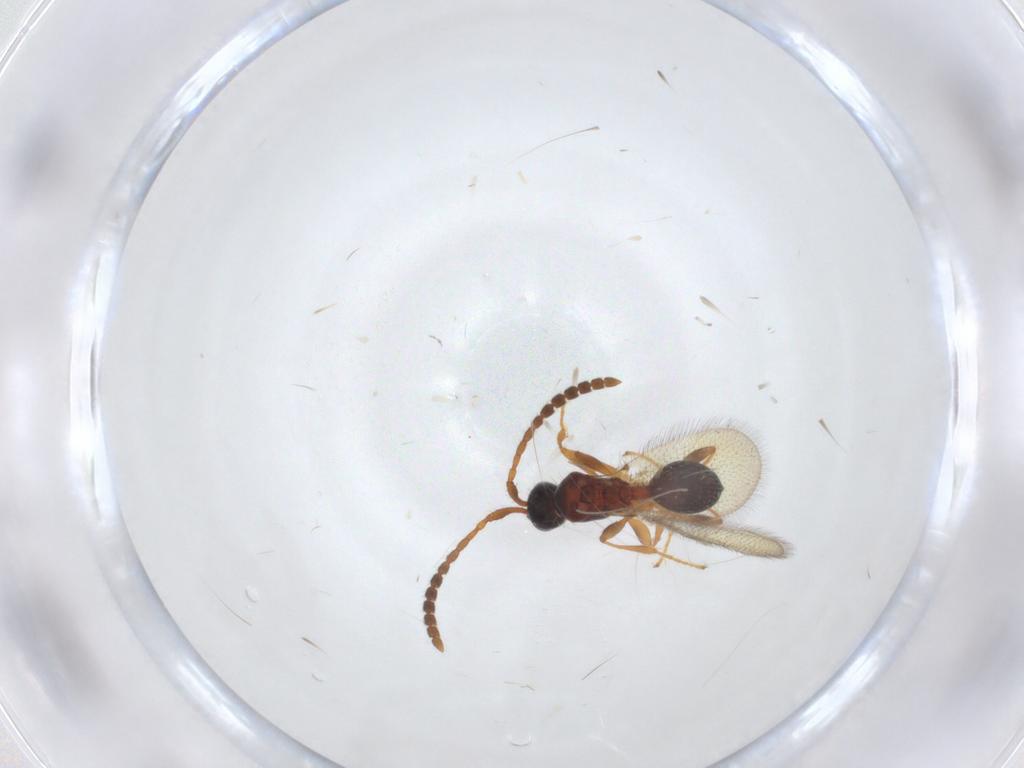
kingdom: Animalia
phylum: Arthropoda
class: Insecta
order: Hymenoptera
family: Diapriidae
